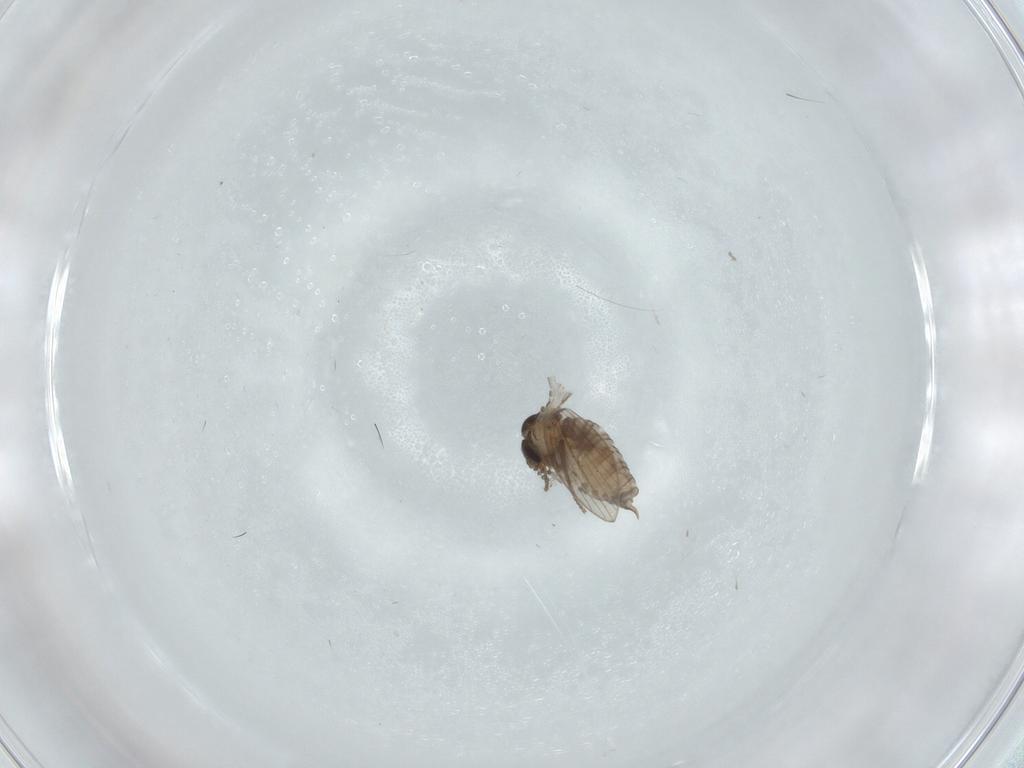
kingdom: Animalia
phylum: Arthropoda
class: Insecta
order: Diptera
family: Psychodidae
